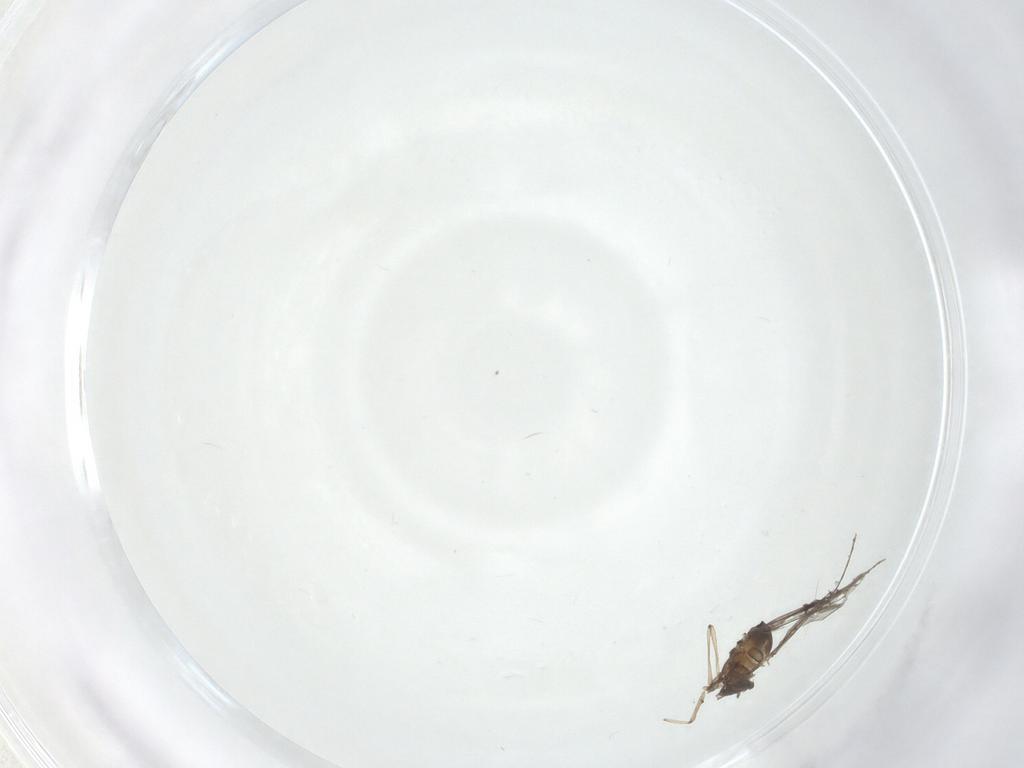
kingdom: Animalia
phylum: Arthropoda
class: Insecta
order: Diptera
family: Cecidomyiidae
